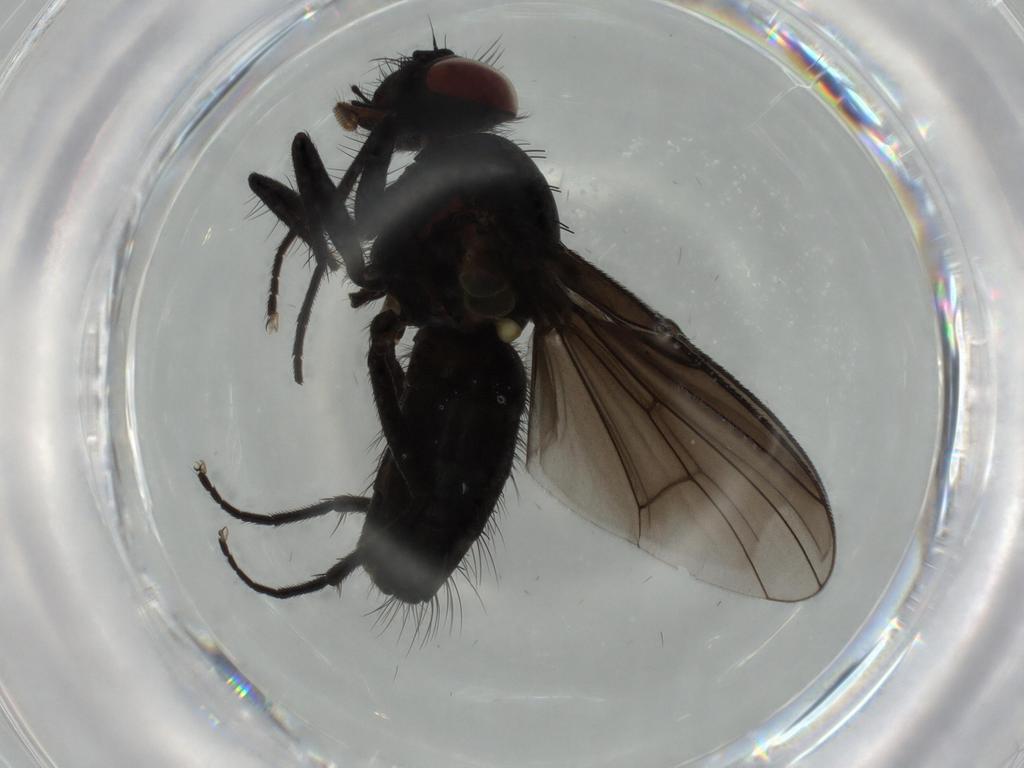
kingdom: Animalia
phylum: Arthropoda
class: Insecta
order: Diptera
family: Muscidae
